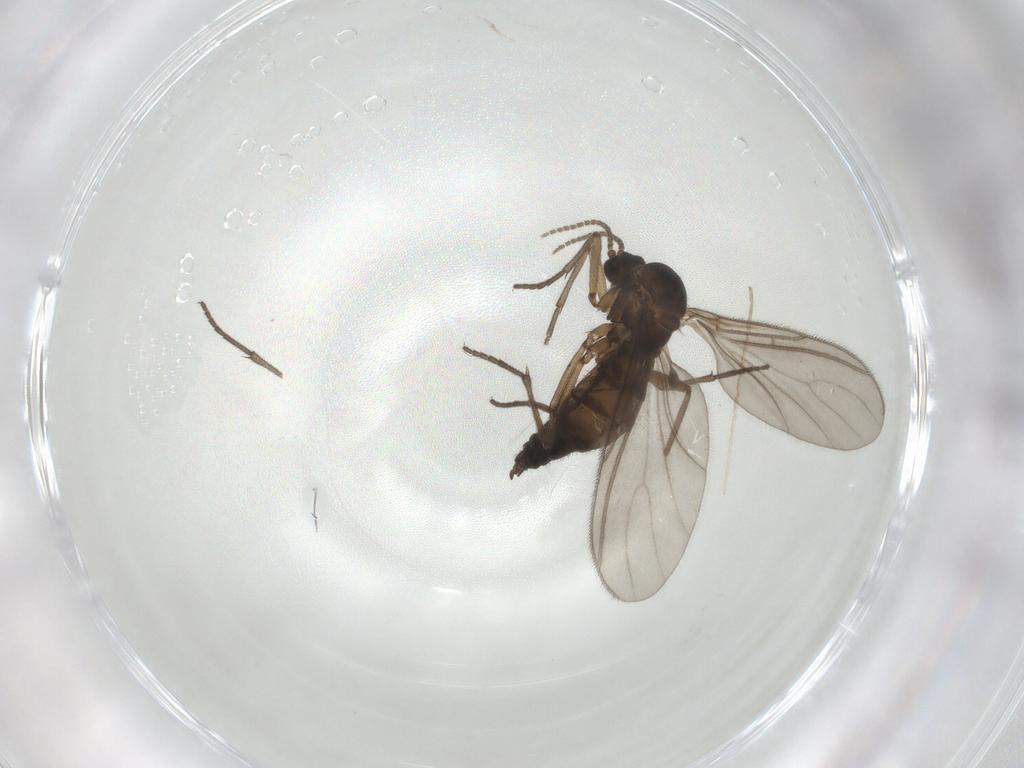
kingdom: Animalia
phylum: Arthropoda
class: Insecta
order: Diptera
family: Sciaridae
